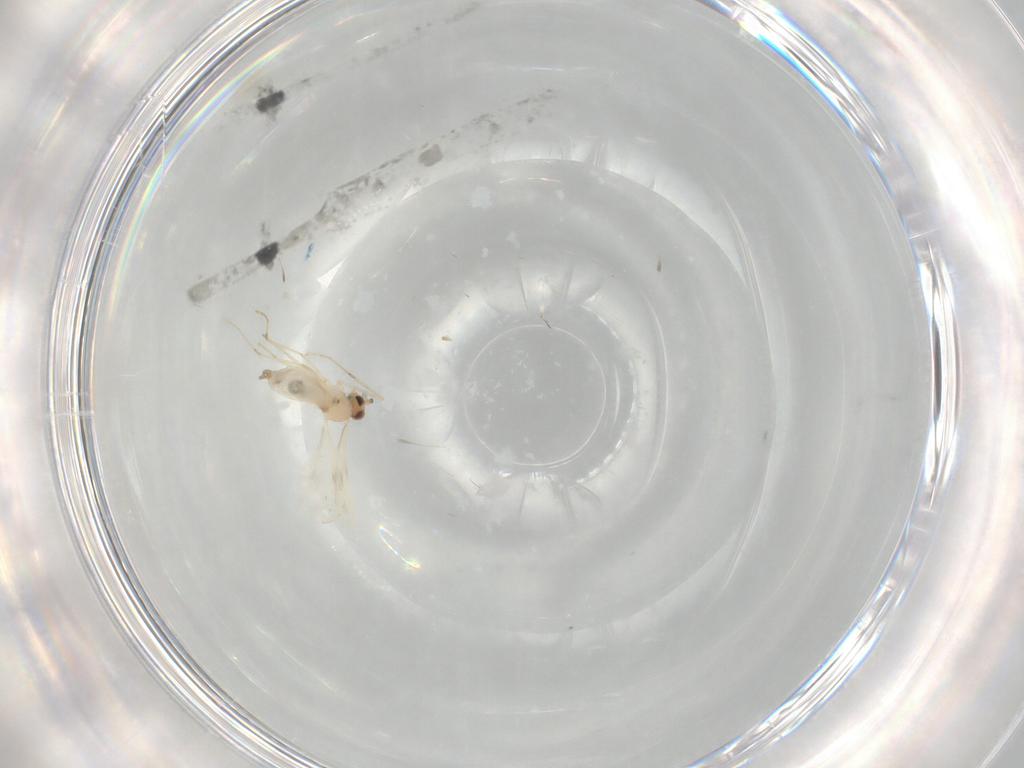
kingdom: Animalia
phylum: Arthropoda
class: Insecta
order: Diptera
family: Cecidomyiidae
